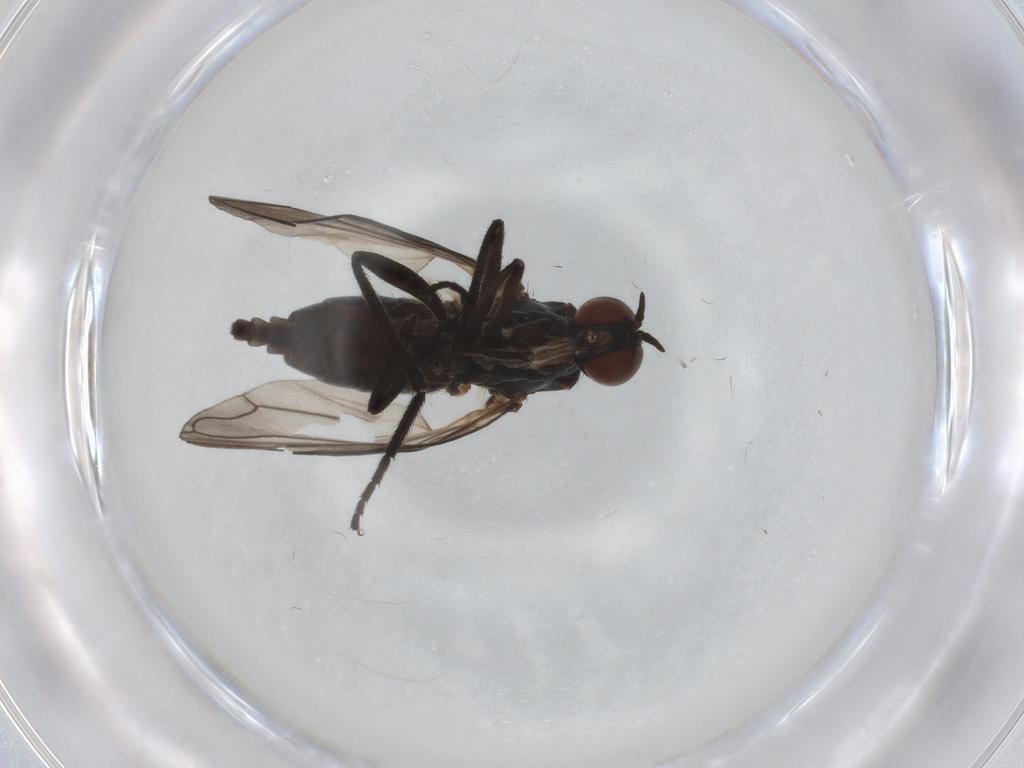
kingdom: Animalia
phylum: Arthropoda
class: Insecta
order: Diptera
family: Empididae
